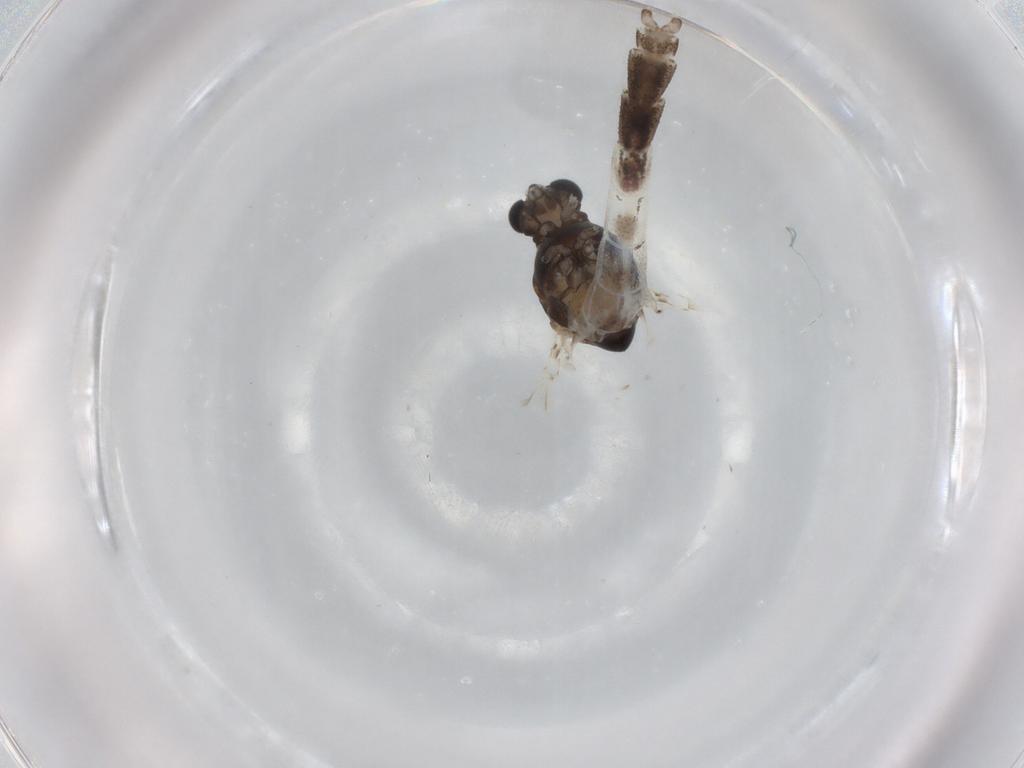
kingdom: Animalia
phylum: Arthropoda
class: Insecta
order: Diptera
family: Chironomidae
